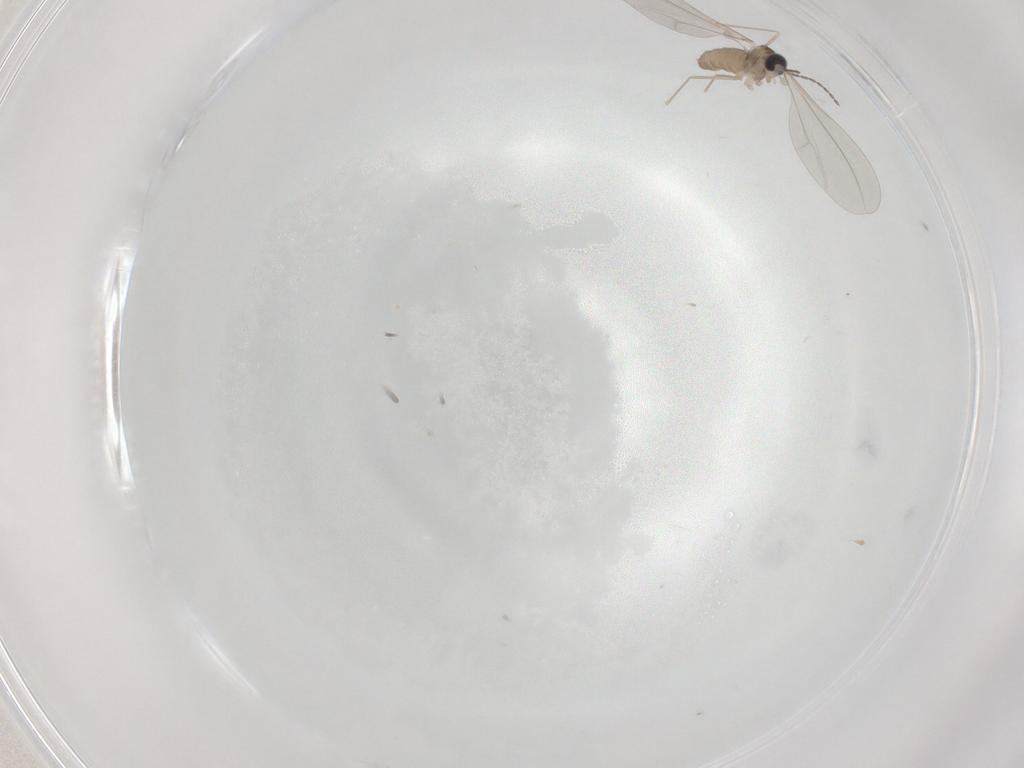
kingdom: Animalia
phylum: Arthropoda
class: Insecta
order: Diptera
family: Cecidomyiidae
